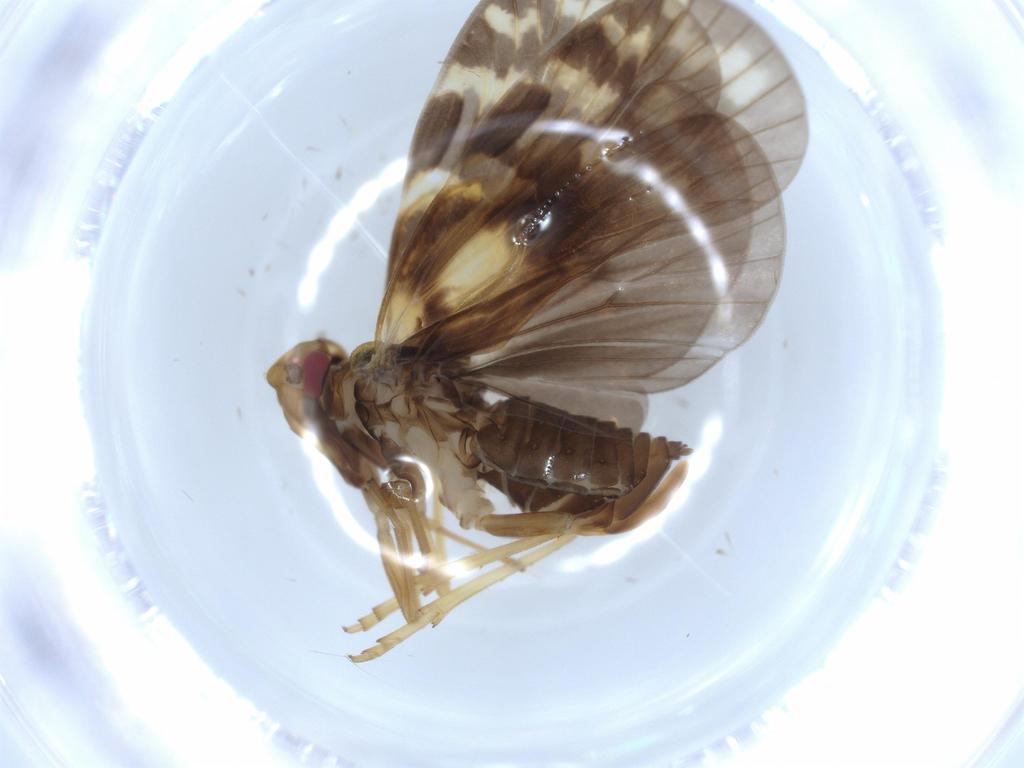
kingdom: Animalia
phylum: Arthropoda
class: Insecta
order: Hemiptera
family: Cixiidae
